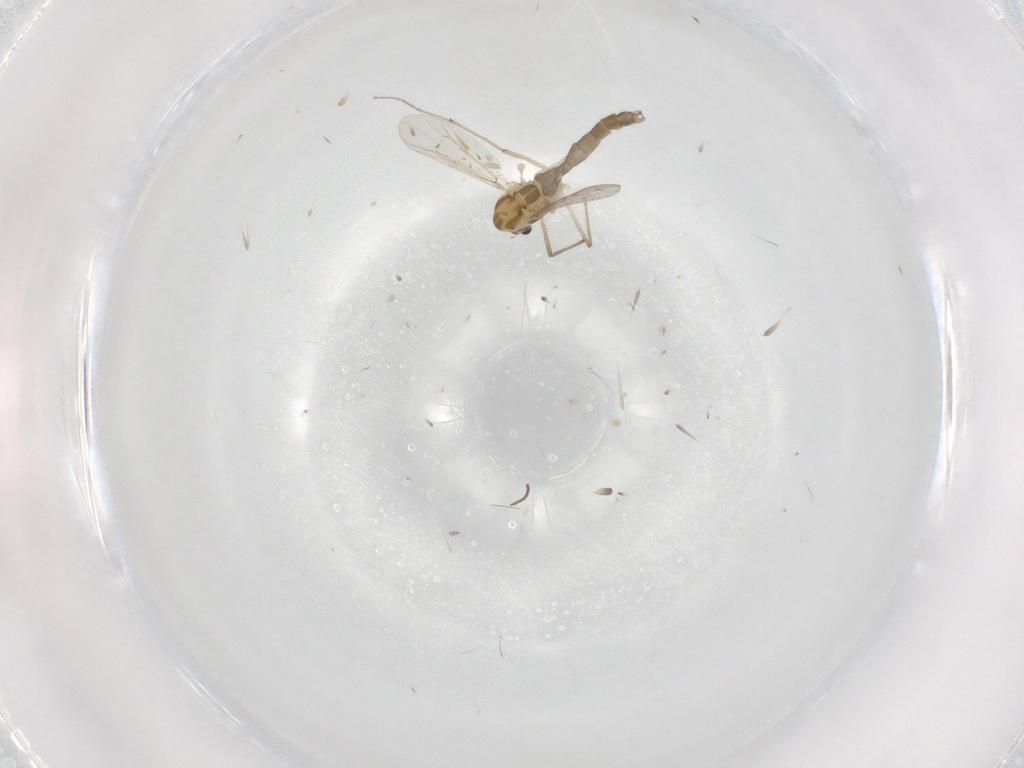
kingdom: Animalia
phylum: Arthropoda
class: Insecta
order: Diptera
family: Chironomidae
